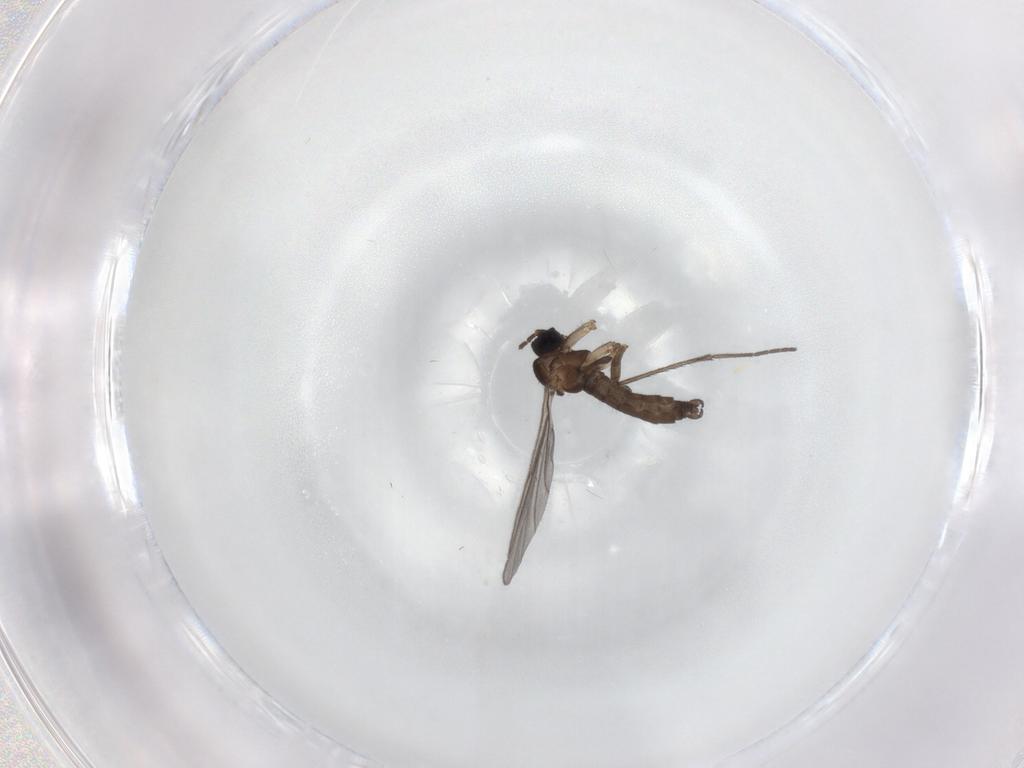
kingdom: Animalia
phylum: Arthropoda
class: Insecta
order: Diptera
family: Sciaridae
